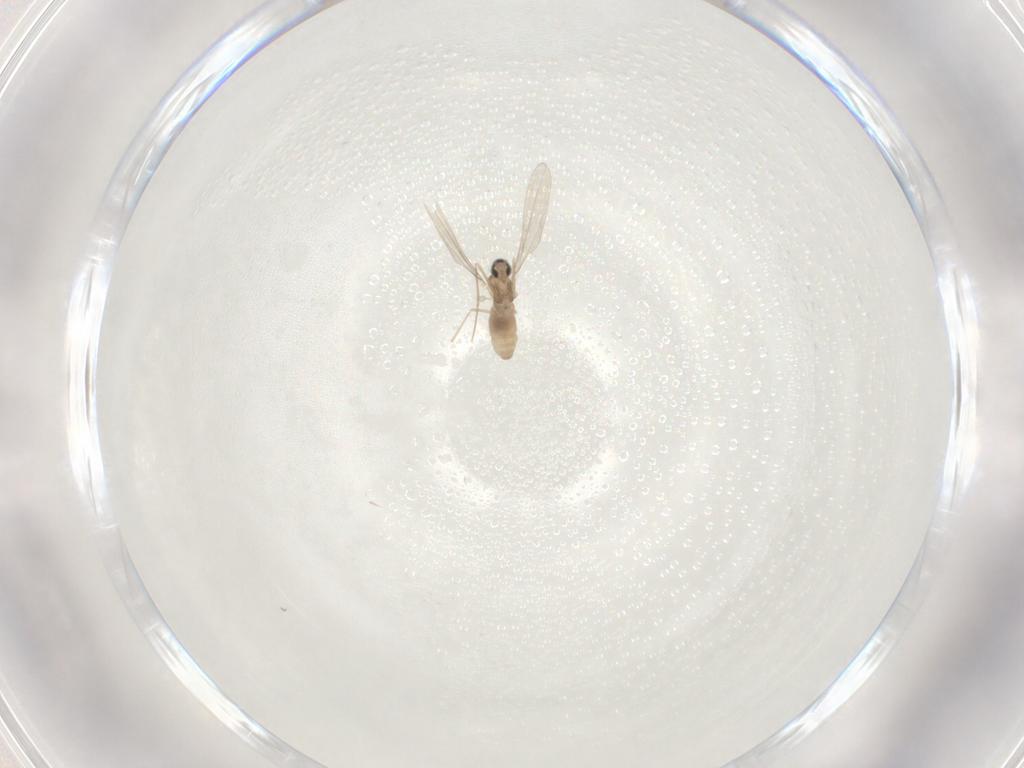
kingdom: Animalia
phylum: Arthropoda
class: Insecta
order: Diptera
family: Cecidomyiidae
